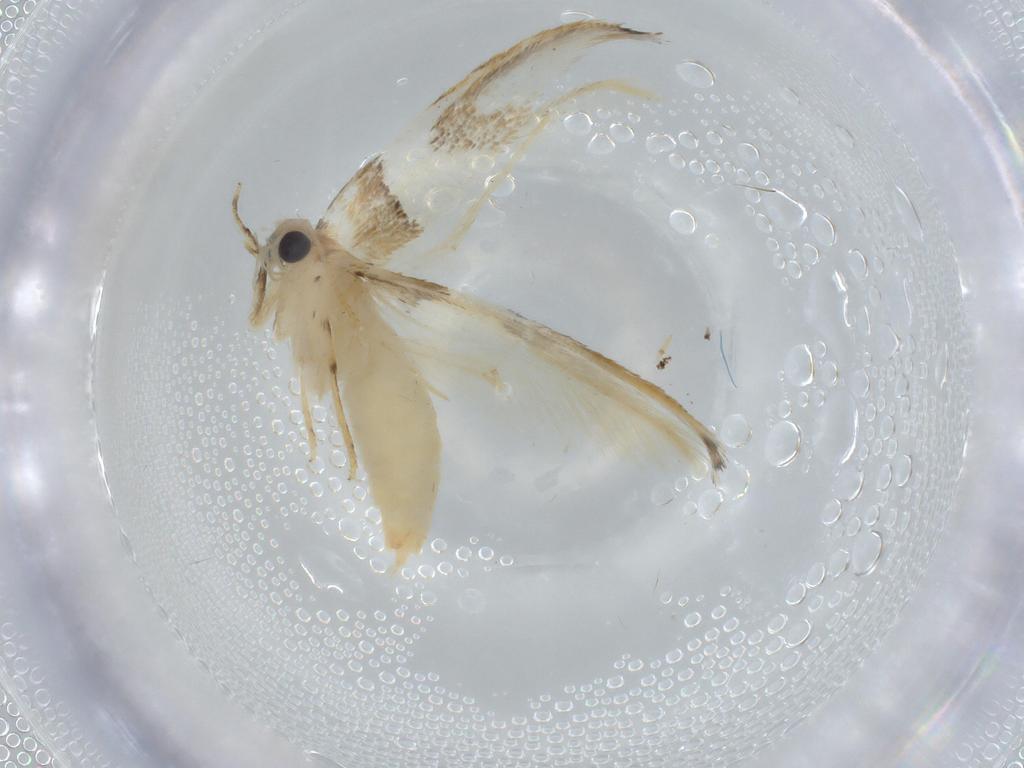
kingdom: Animalia
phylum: Arthropoda
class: Insecta
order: Lepidoptera
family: Tineidae
